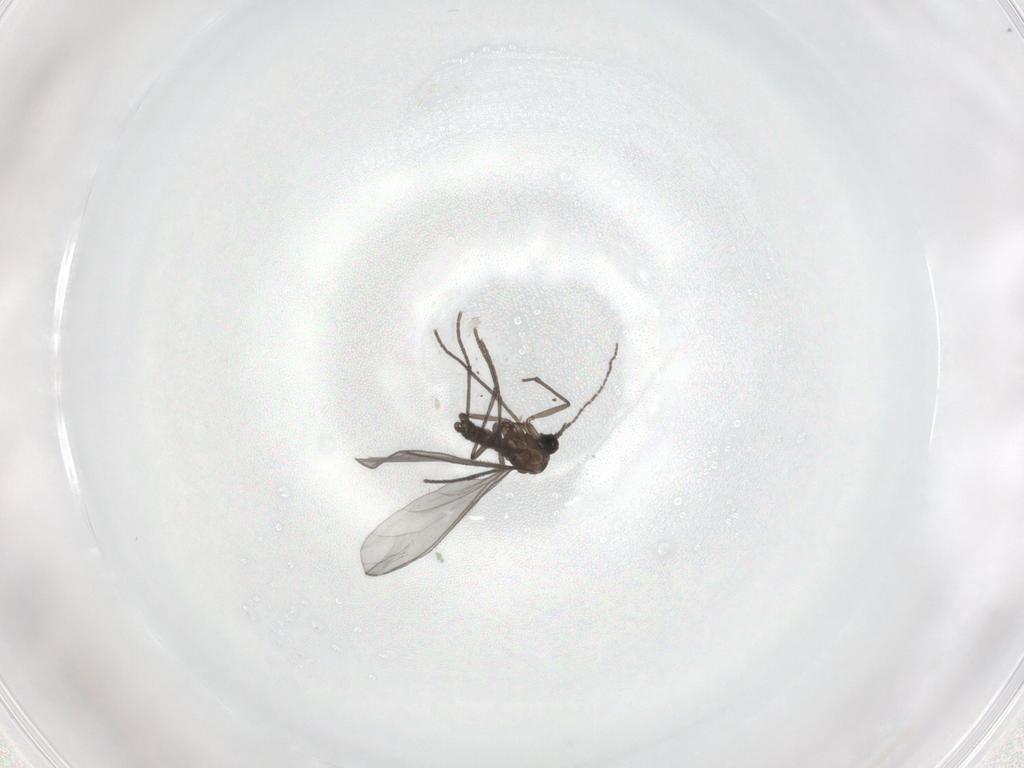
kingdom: Animalia
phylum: Arthropoda
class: Insecta
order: Diptera
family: Sciaridae
